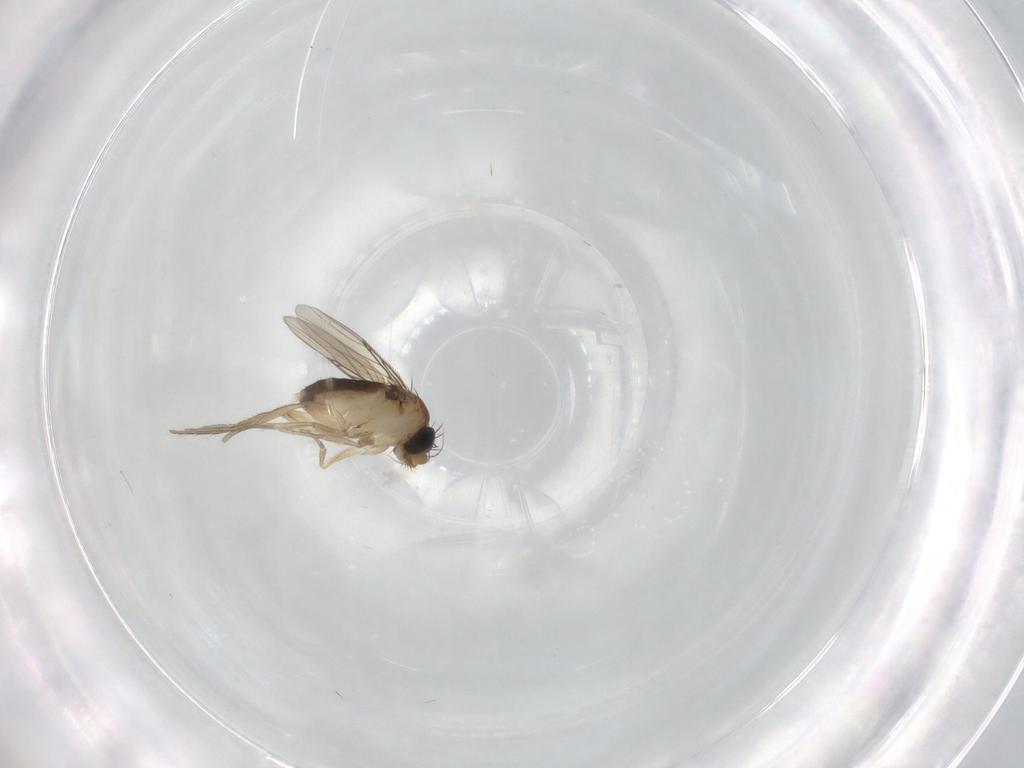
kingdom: Animalia
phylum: Arthropoda
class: Insecta
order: Diptera
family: Phoridae
